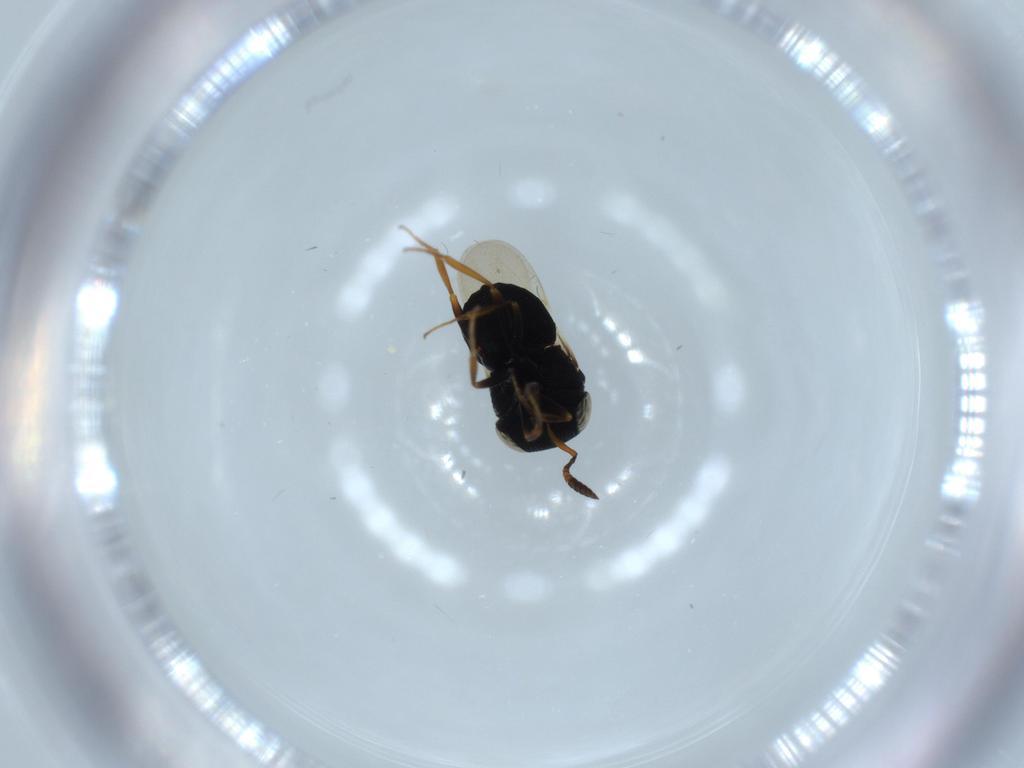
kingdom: Animalia
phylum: Arthropoda
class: Insecta
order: Hymenoptera
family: Scelionidae
